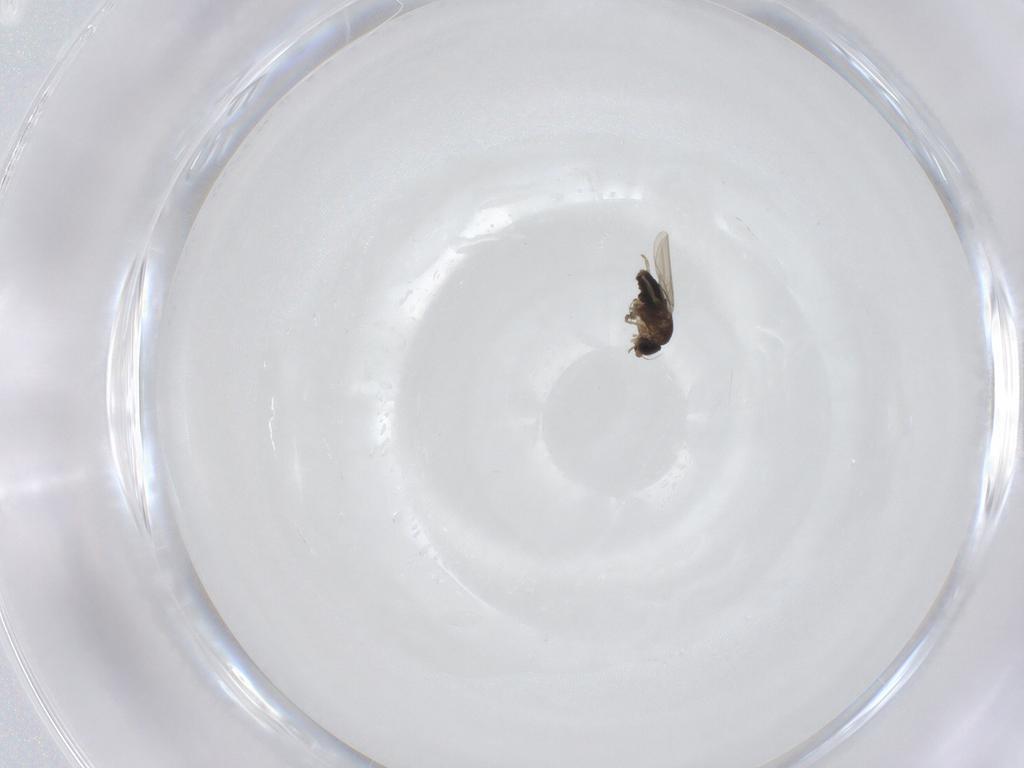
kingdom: Animalia
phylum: Arthropoda
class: Insecta
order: Diptera
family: Phoridae
